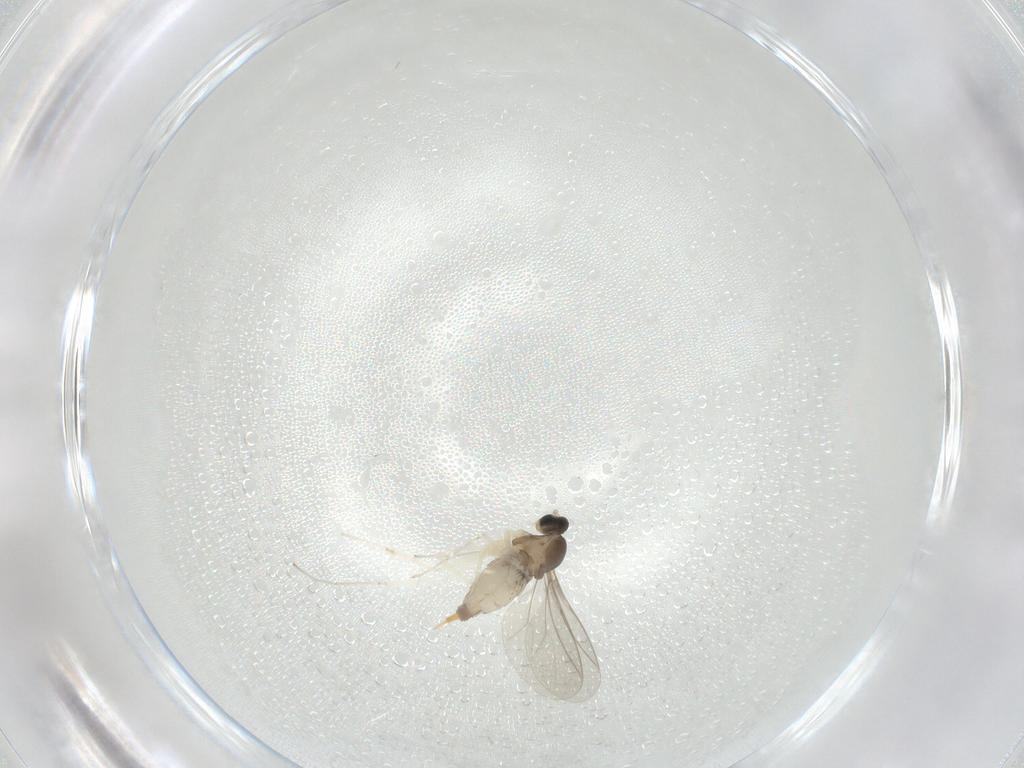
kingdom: Animalia
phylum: Arthropoda
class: Insecta
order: Diptera
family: Cecidomyiidae
